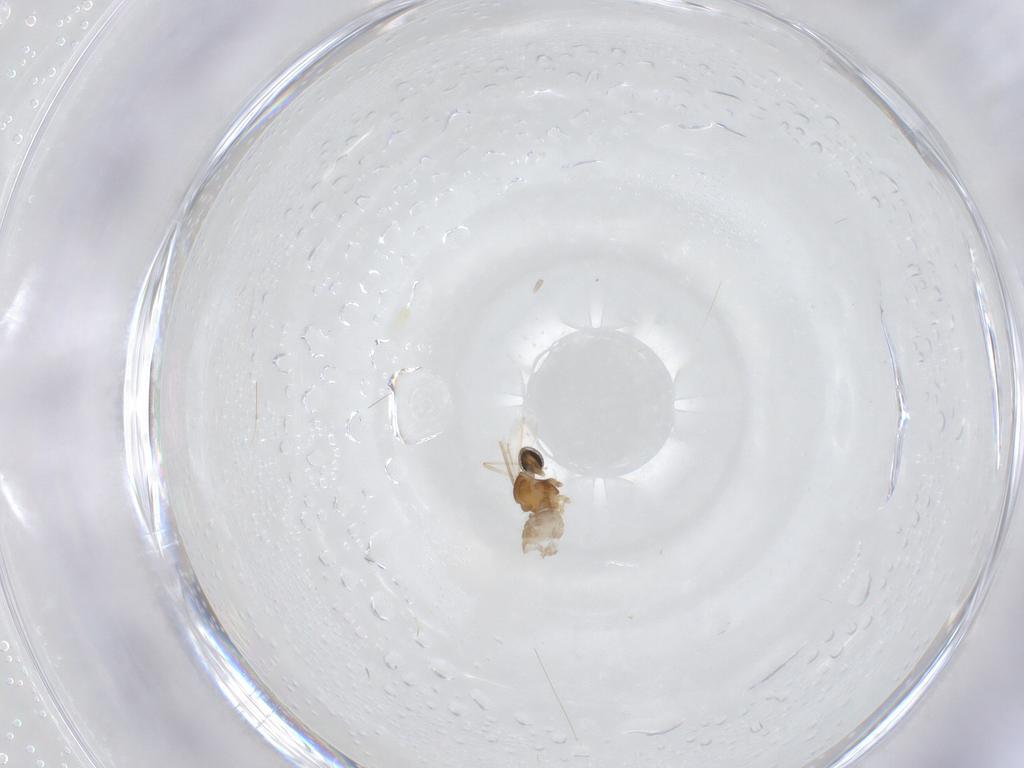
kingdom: Animalia
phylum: Arthropoda
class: Insecta
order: Diptera
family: Cecidomyiidae
